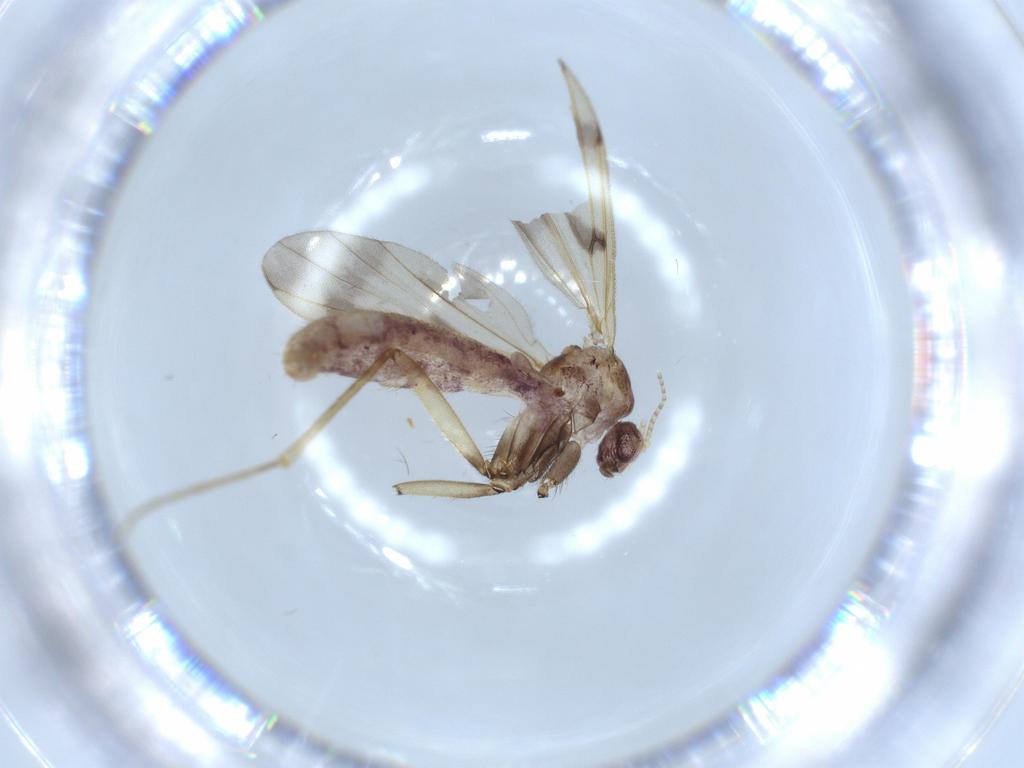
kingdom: Animalia
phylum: Arthropoda
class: Insecta
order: Diptera
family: Mycetophilidae
